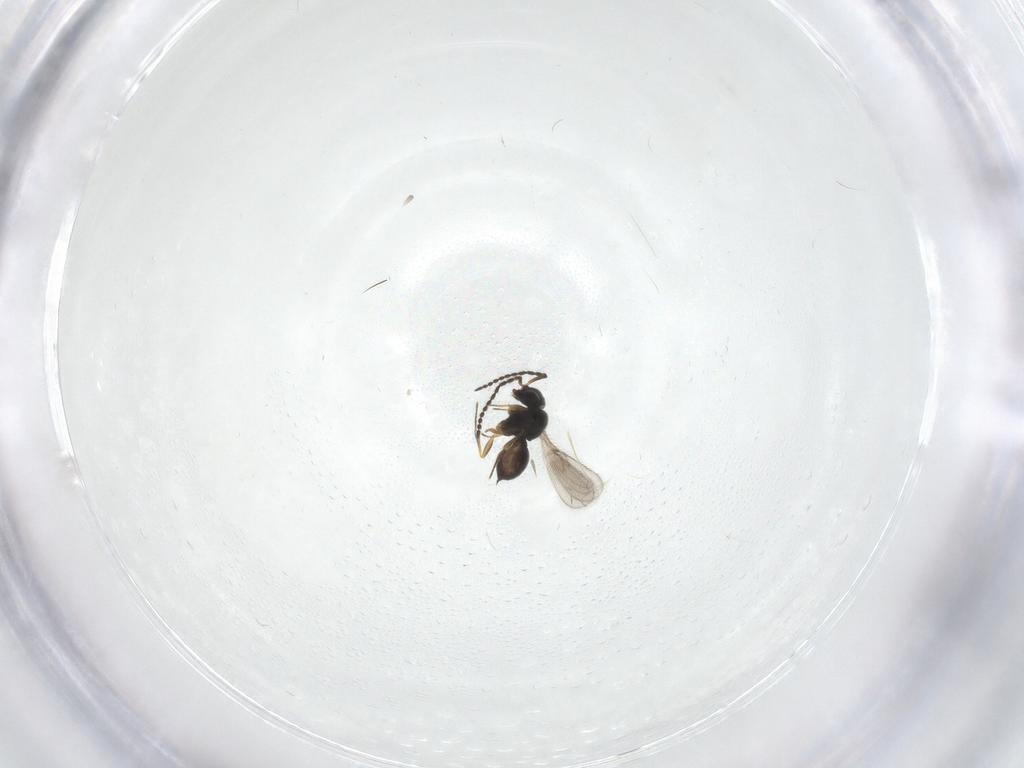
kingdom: Animalia
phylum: Arthropoda
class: Insecta
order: Hymenoptera
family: Scelionidae
